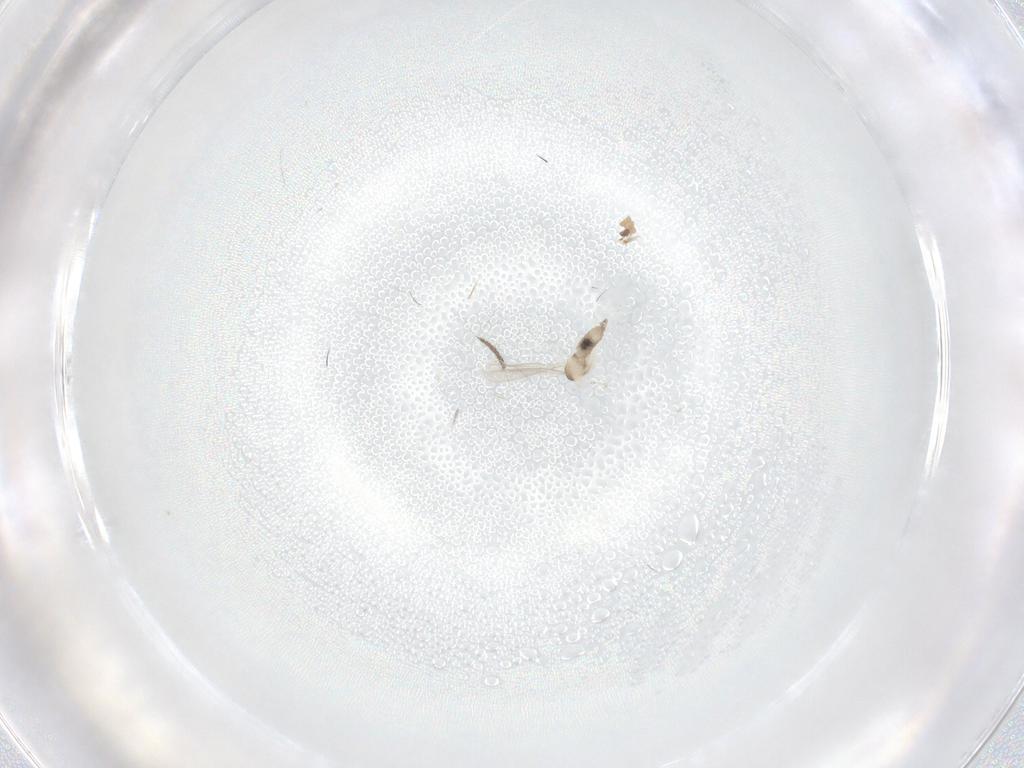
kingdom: Animalia
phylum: Arthropoda
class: Insecta
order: Diptera
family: Cecidomyiidae
